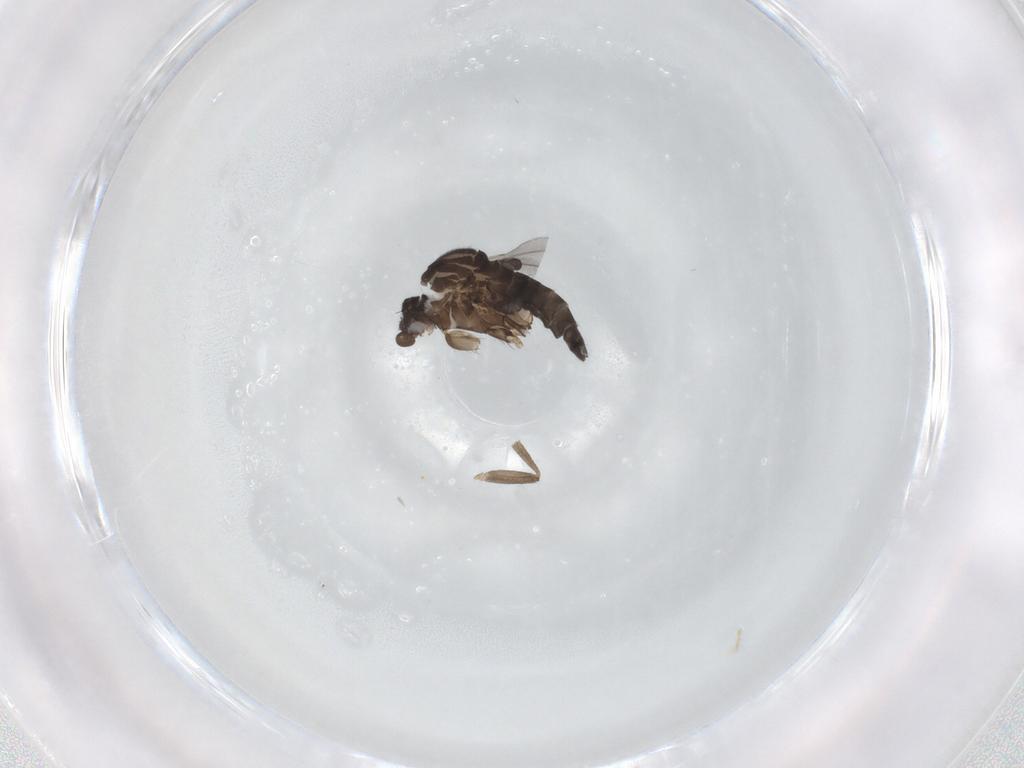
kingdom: Animalia
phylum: Arthropoda
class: Insecta
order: Diptera
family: Phoridae
